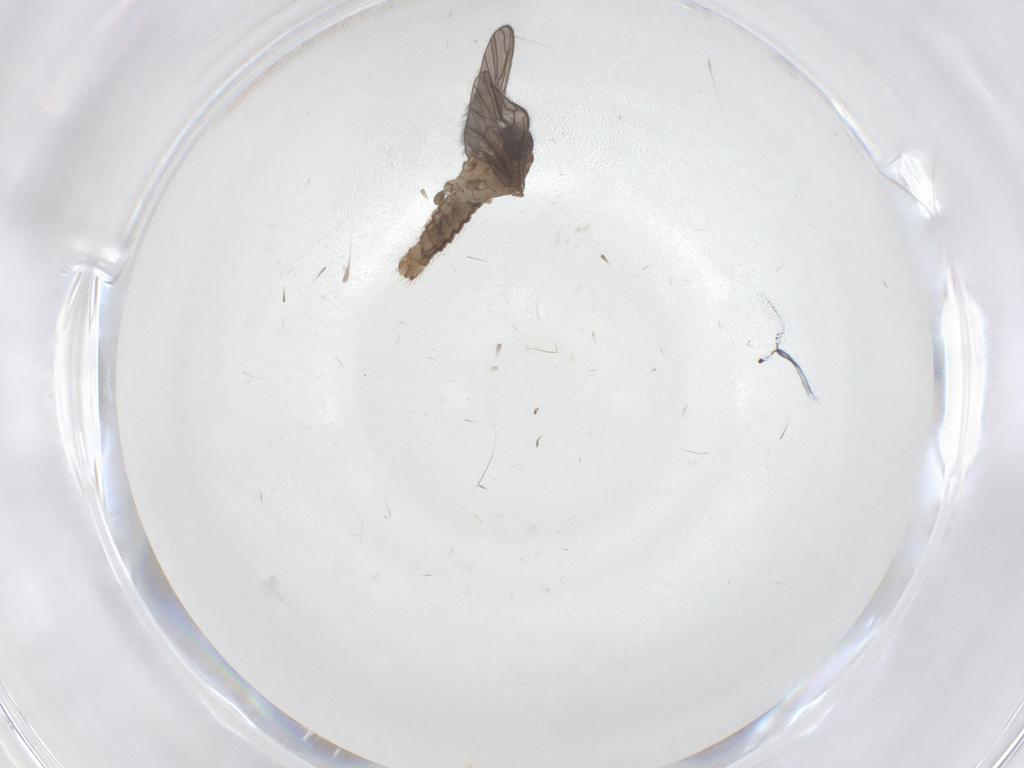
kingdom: Animalia
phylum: Arthropoda
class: Insecta
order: Diptera
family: Limoniidae
